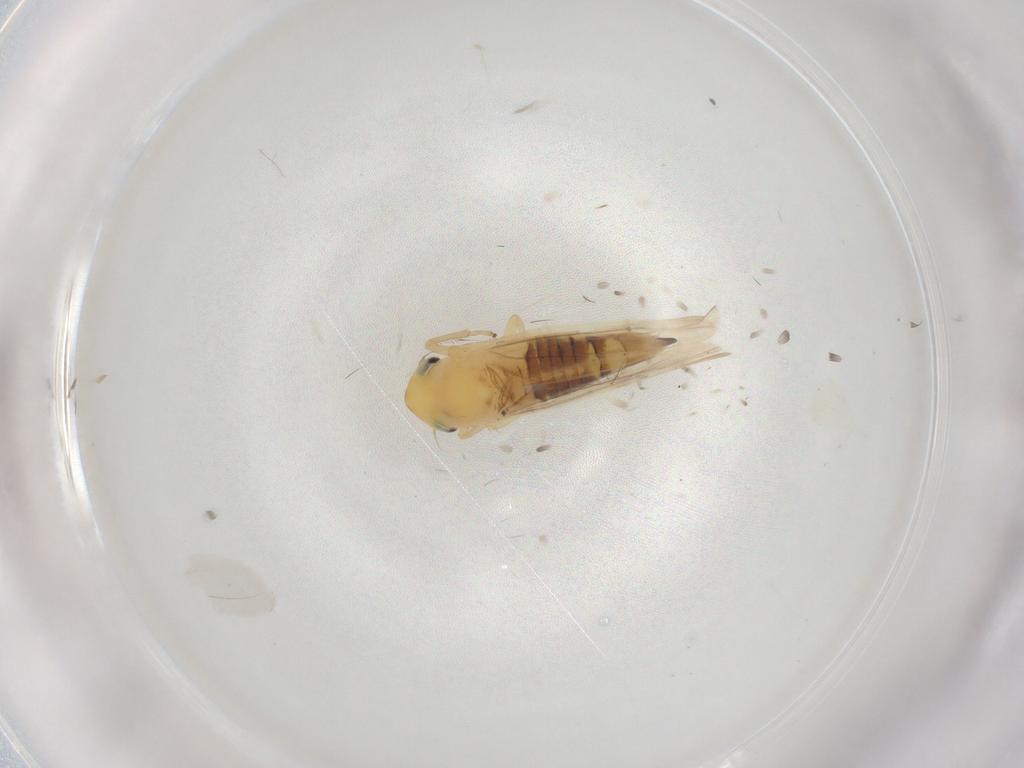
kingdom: Animalia
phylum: Arthropoda
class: Insecta
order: Hemiptera
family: Cicadellidae
